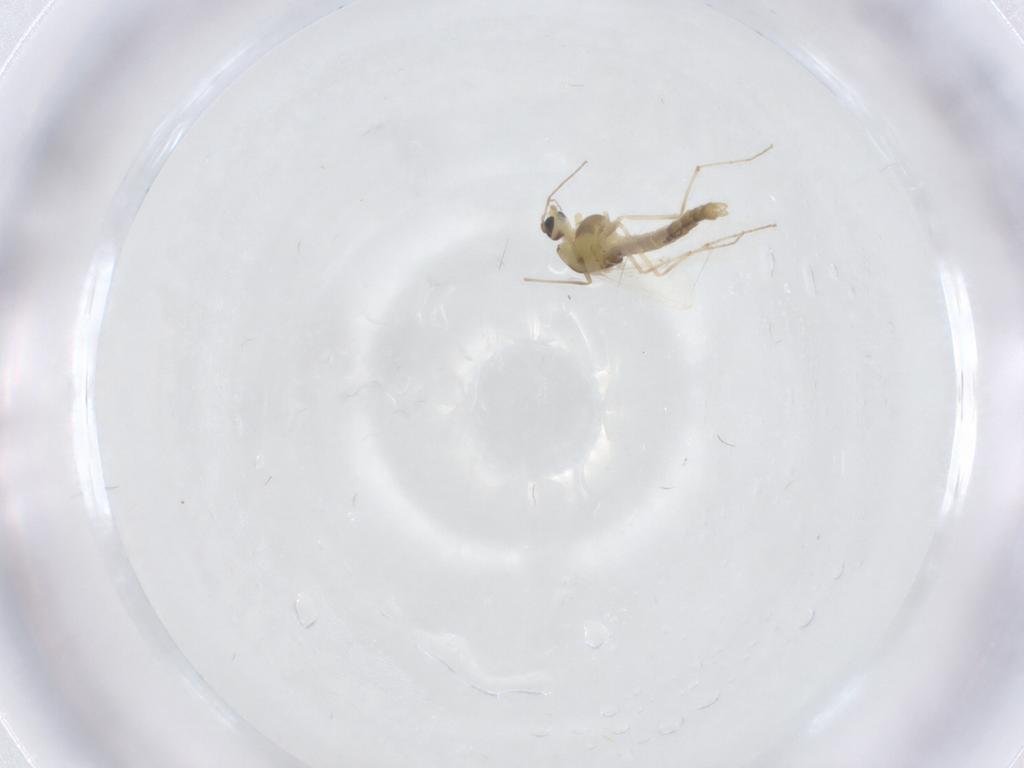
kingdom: Animalia
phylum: Arthropoda
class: Insecta
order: Diptera
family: Chironomidae
